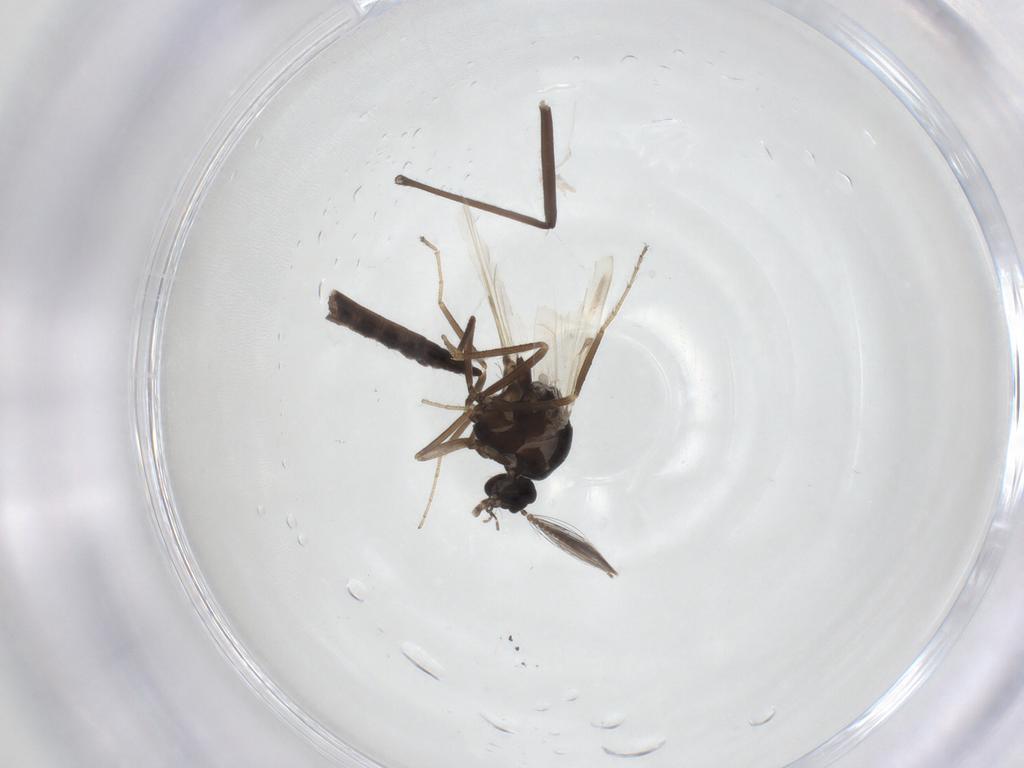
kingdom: Animalia
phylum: Arthropoda
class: Insecta
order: Diptera
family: Ceratopogonidae
